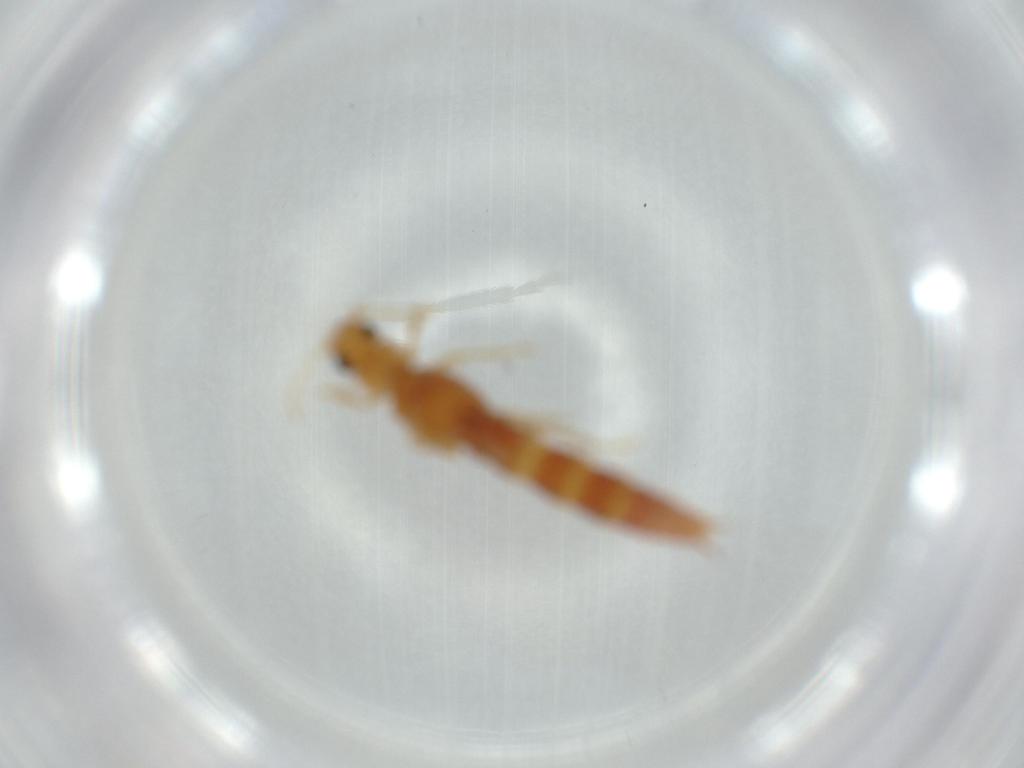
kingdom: Animalia
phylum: Arthropoda
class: Insecta
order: Coleoptera
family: Staphylinidae
